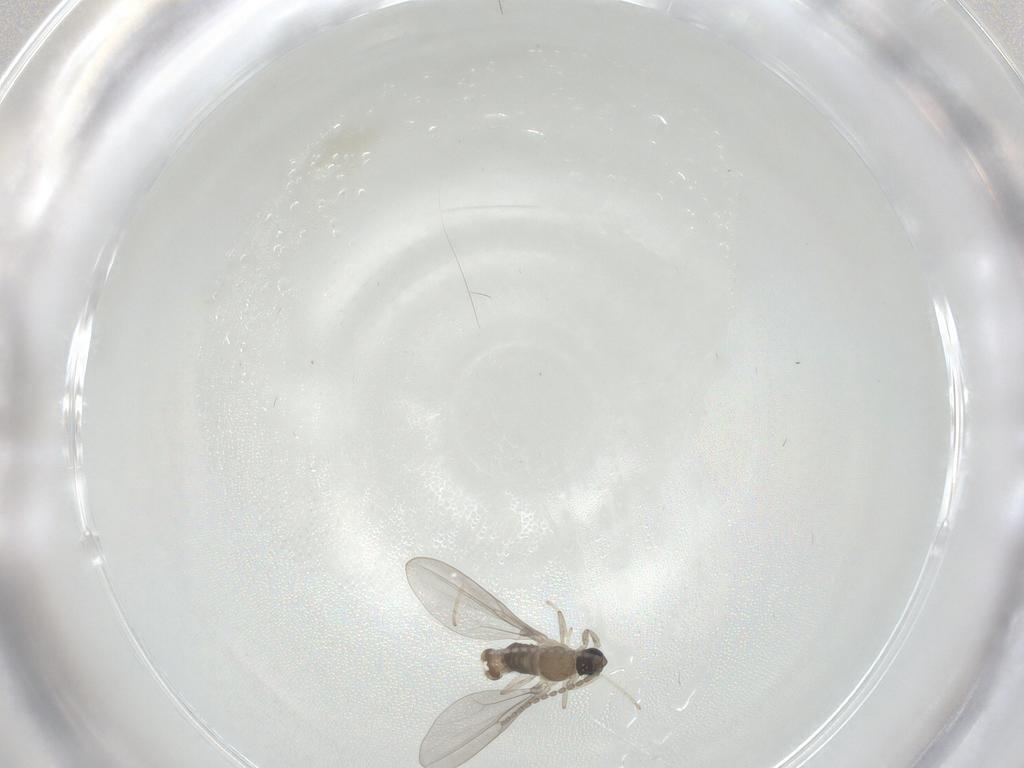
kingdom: Animalia
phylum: Arthropoda
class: Insecta
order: Diptera
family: Cecidomyiidae
